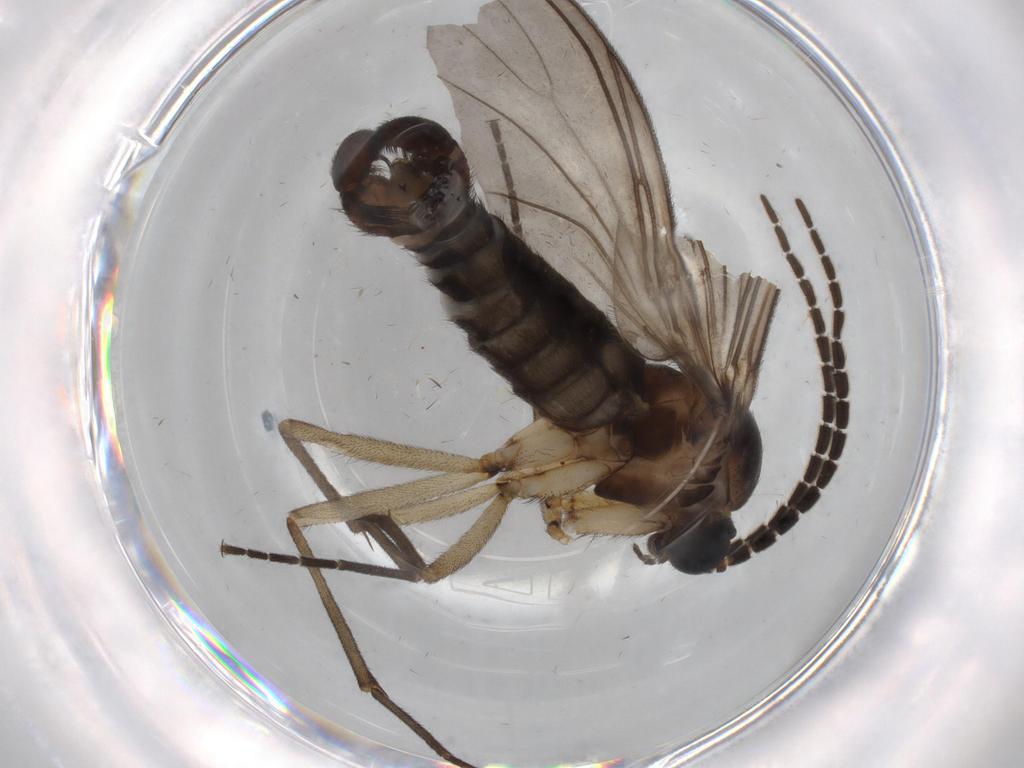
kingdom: Animalia
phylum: Arthropoda
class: Insecta
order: Diptera
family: Sciaridae
